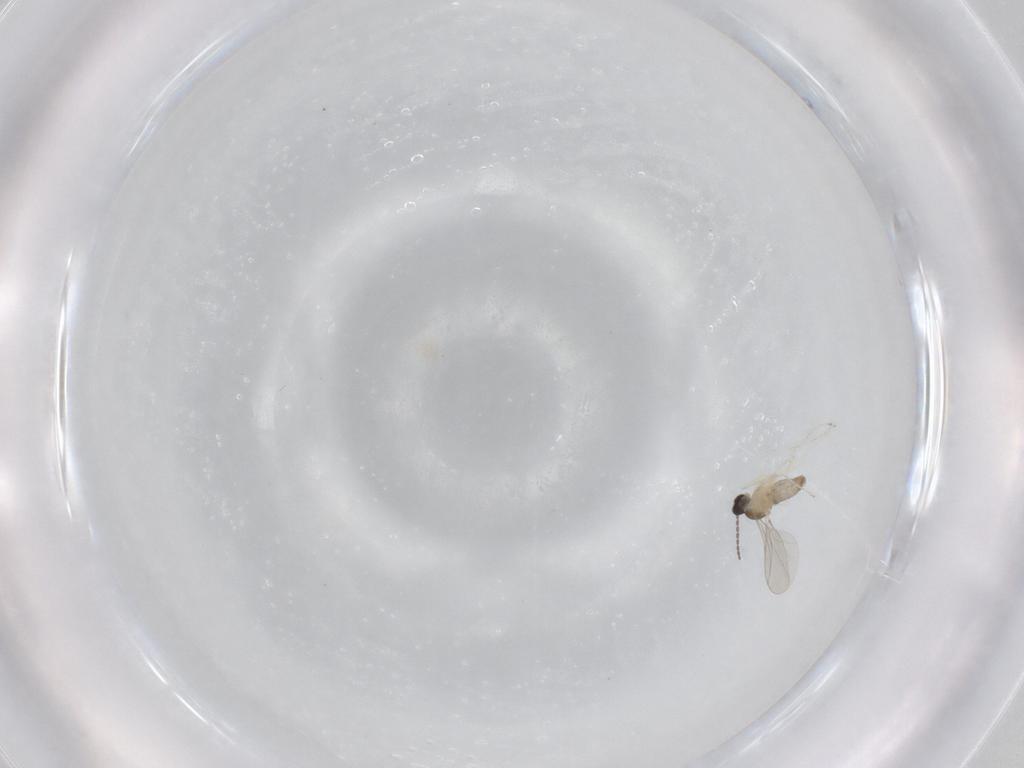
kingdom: Animalia
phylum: Arthropoda
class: Insecta
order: Diptera
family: Cecidomyiidae
